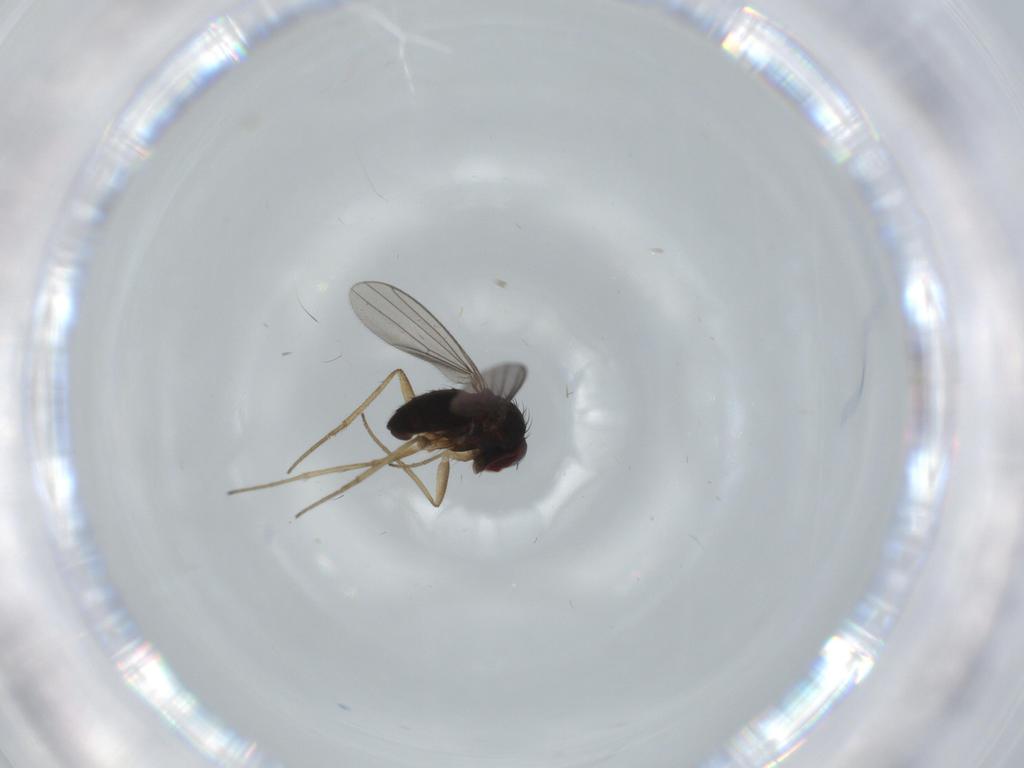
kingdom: Animalia
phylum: Arthropoda
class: Insecta
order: Diptera
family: Dolichopodidae
